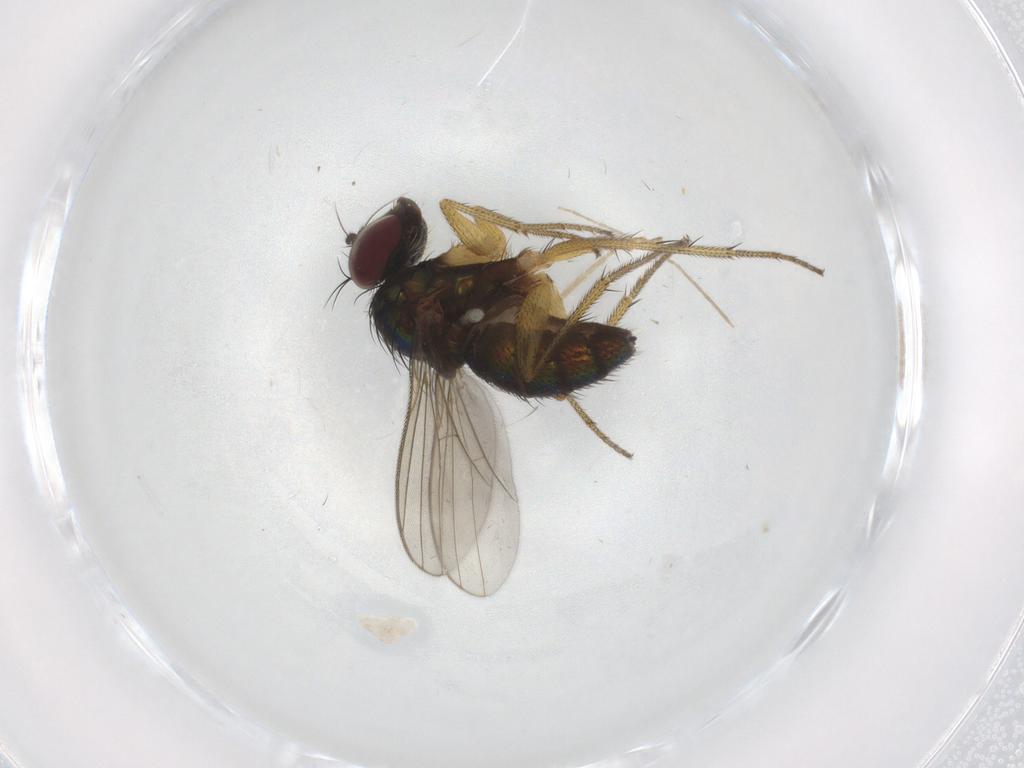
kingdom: Animalia
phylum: Arthropoda
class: Insecta
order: Diptera
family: Dolichopodidae
